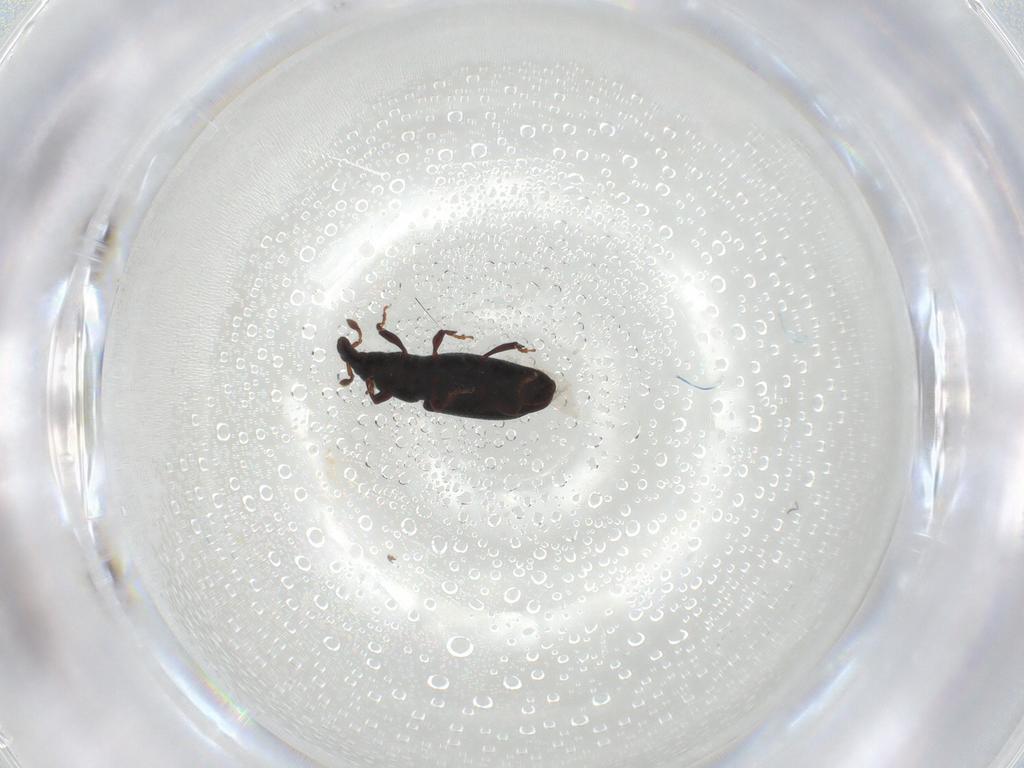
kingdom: Animalia
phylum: Arthropoda
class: Insecta
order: Coleoptera
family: Curculionidae
